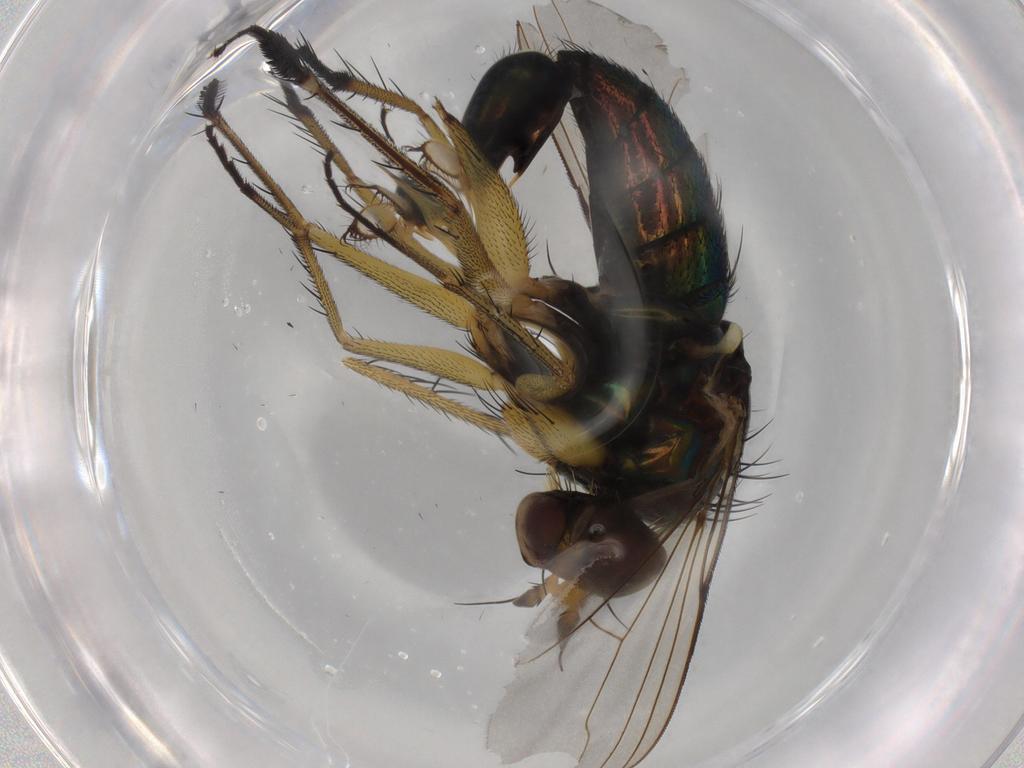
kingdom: Animalia
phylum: Arthropoda
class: Insecta
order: Diptera
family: Dolichopodidae
